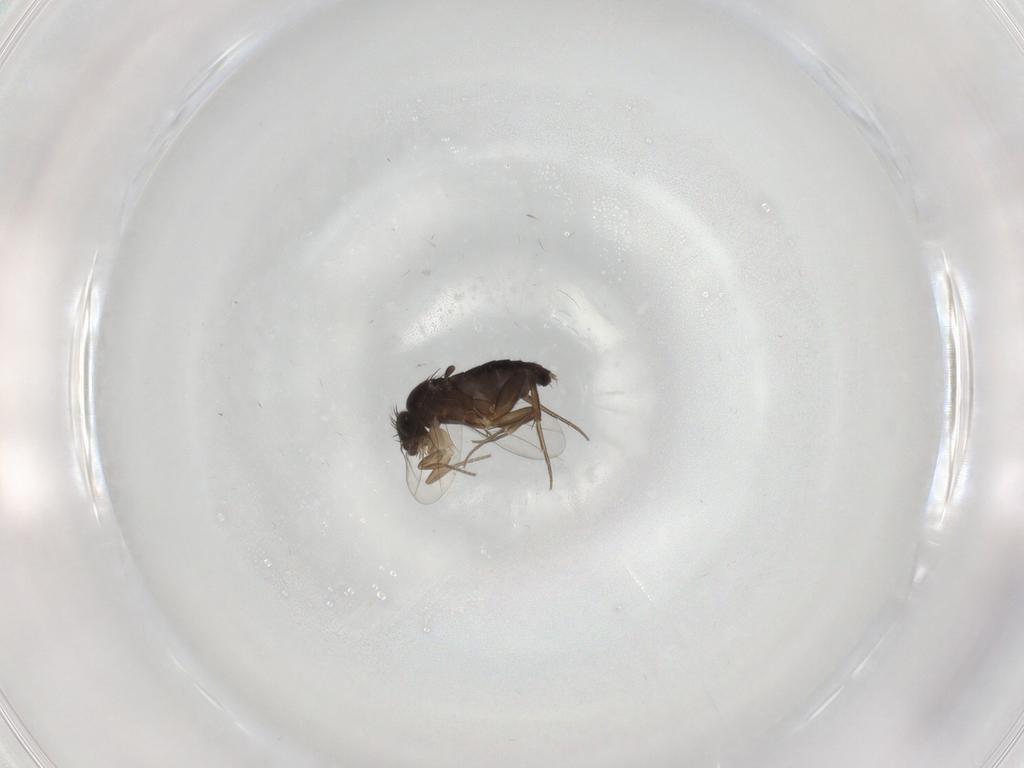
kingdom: Animalia
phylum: Arthropoda
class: Insecta
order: Diptera
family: Phoridae
